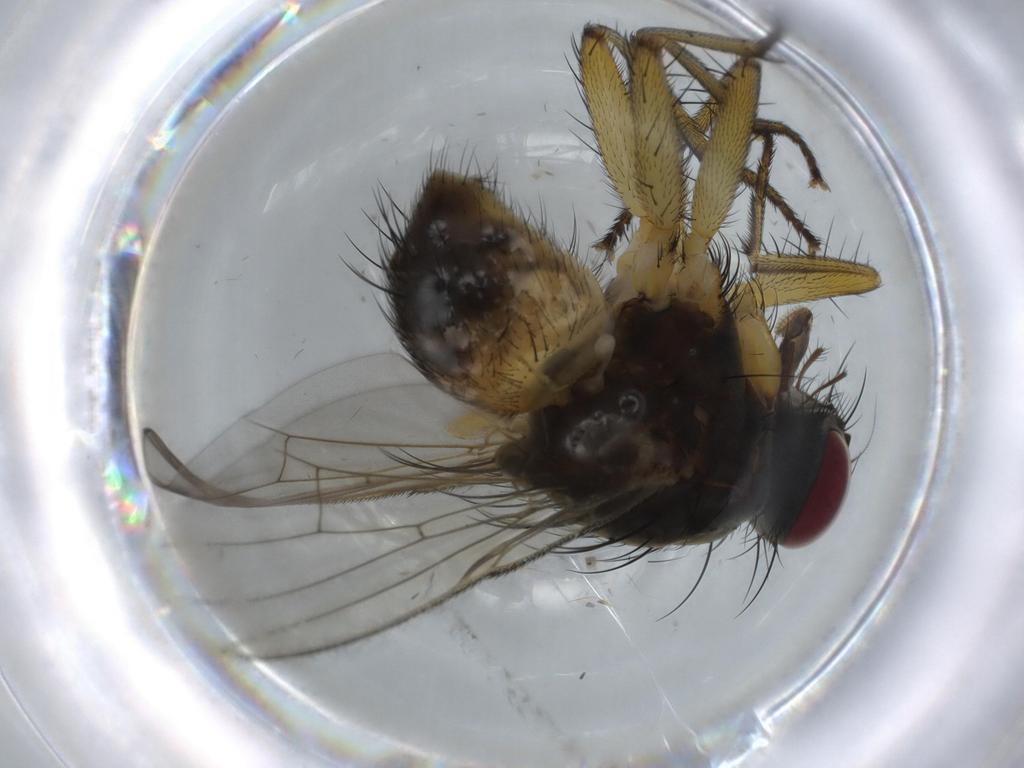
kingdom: Animalia
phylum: Arthropoda
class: Insecta
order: Diptera
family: Muscidae
